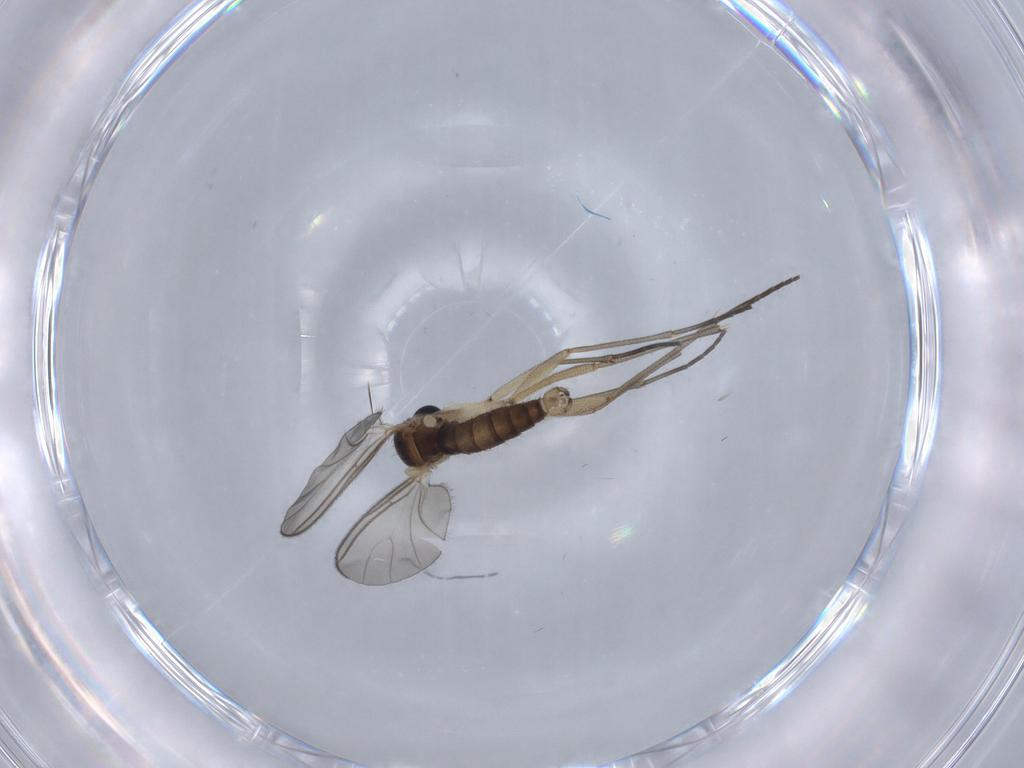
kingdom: Animalia
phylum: Arthropoda
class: Insecta
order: Diptera
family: Sciaridae
